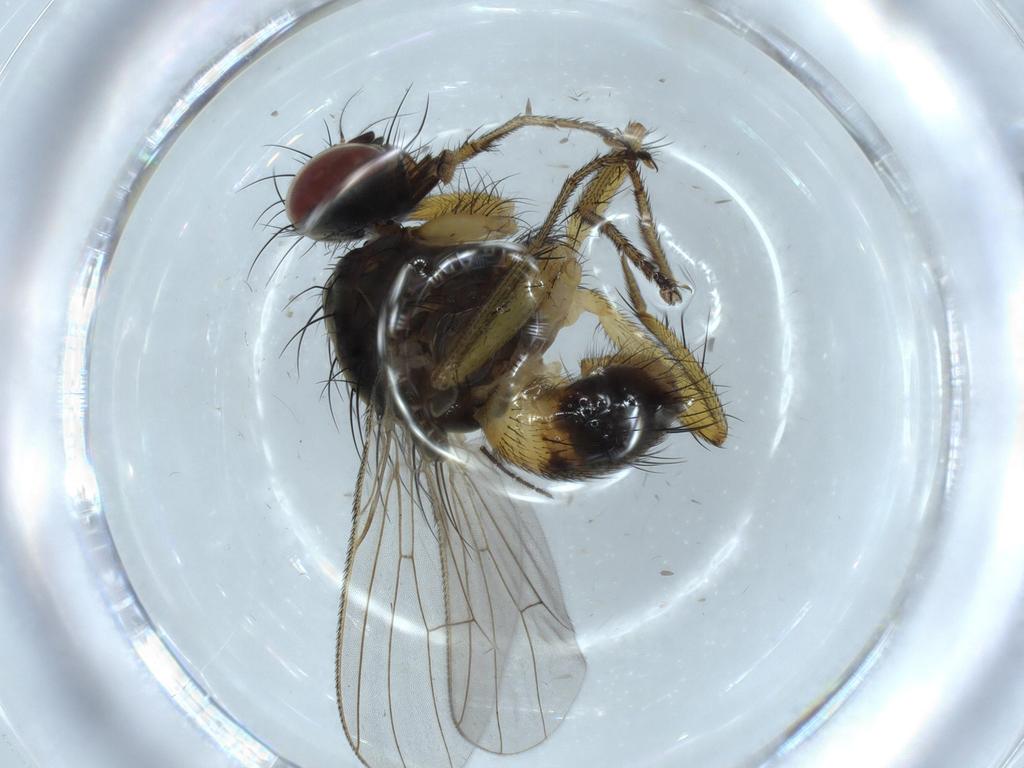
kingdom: Animalia
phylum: Arthropoda
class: Insecta
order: Diptera
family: Muscidae
